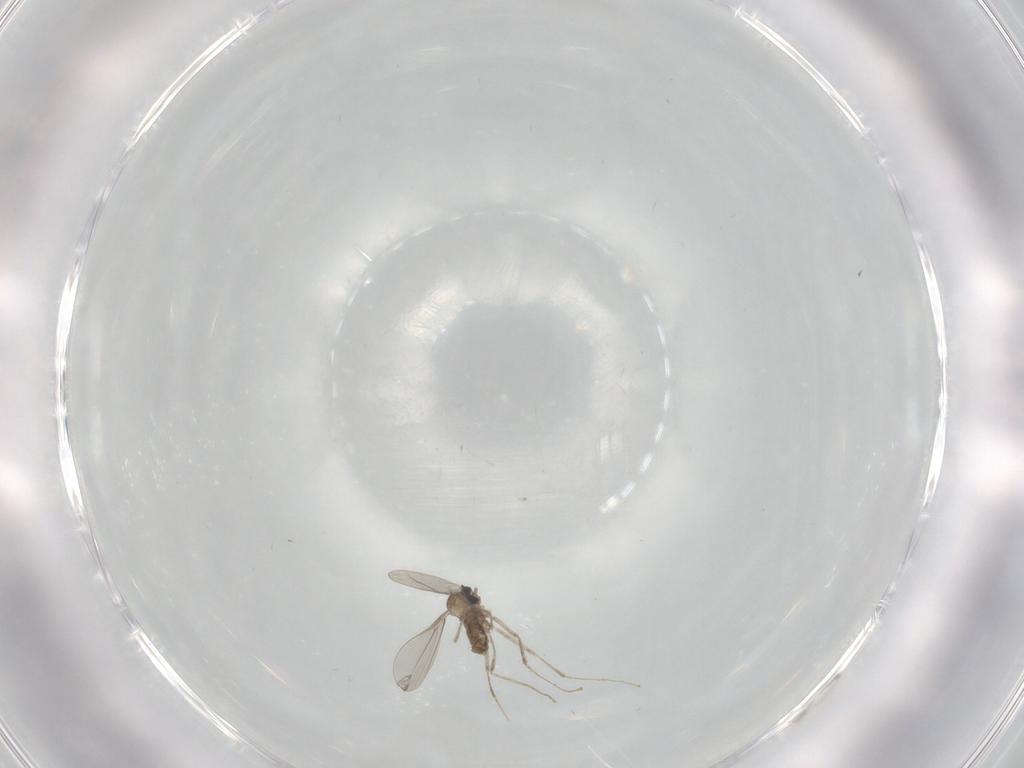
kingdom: Animalia
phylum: Arthropoda
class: Insecta
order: Diptera
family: Cecidomyiidae
